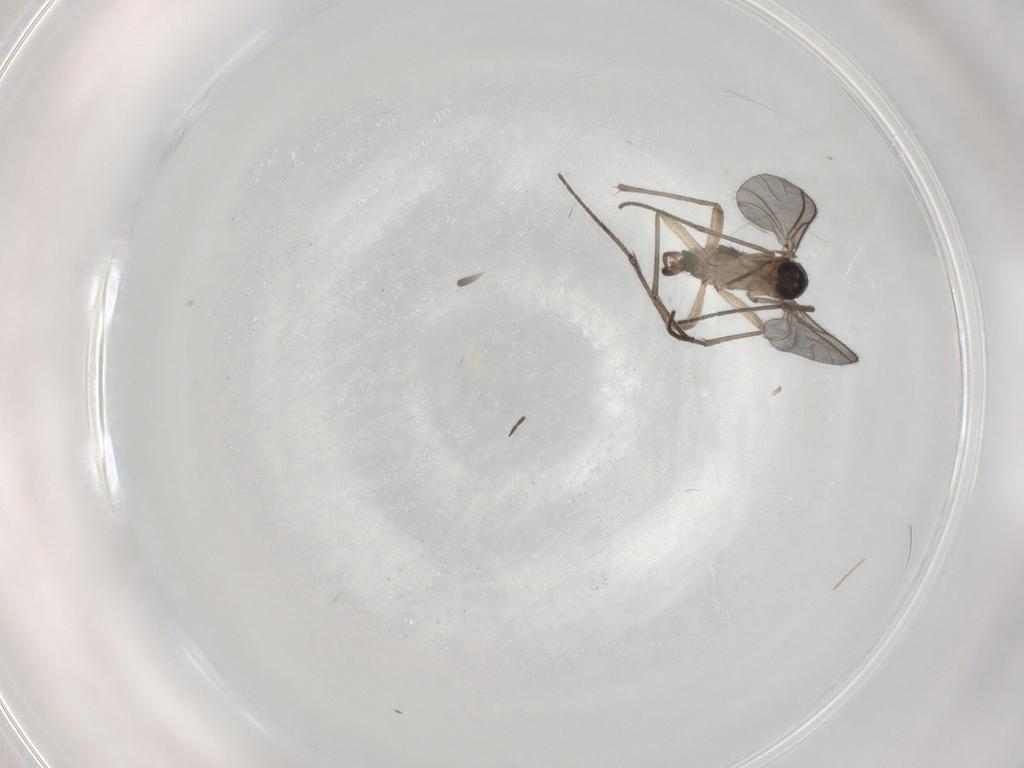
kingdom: Animalia
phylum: Arthropoda
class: Insecta
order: Diptera
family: Cecidomyiidae
